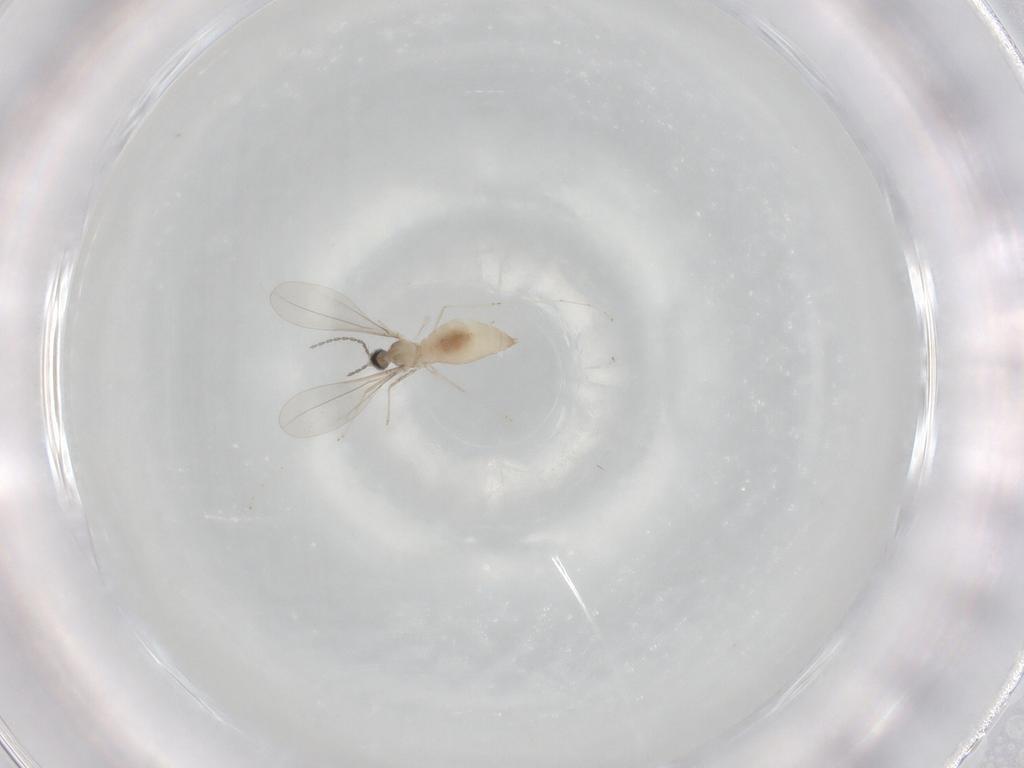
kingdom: Animalia
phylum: Arthropoda
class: Insecta
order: Diptera
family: Cecidomyiidae
